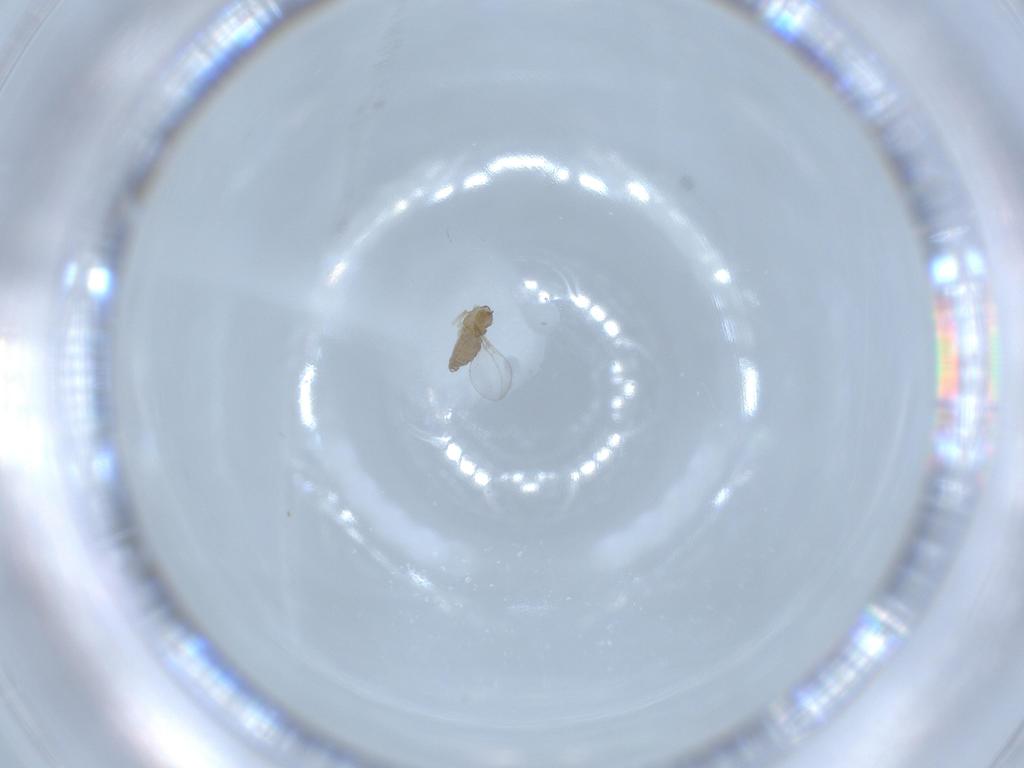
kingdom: Animalia
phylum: Arthropoda
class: Insecta
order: Diptera
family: Cecidomyiidae
